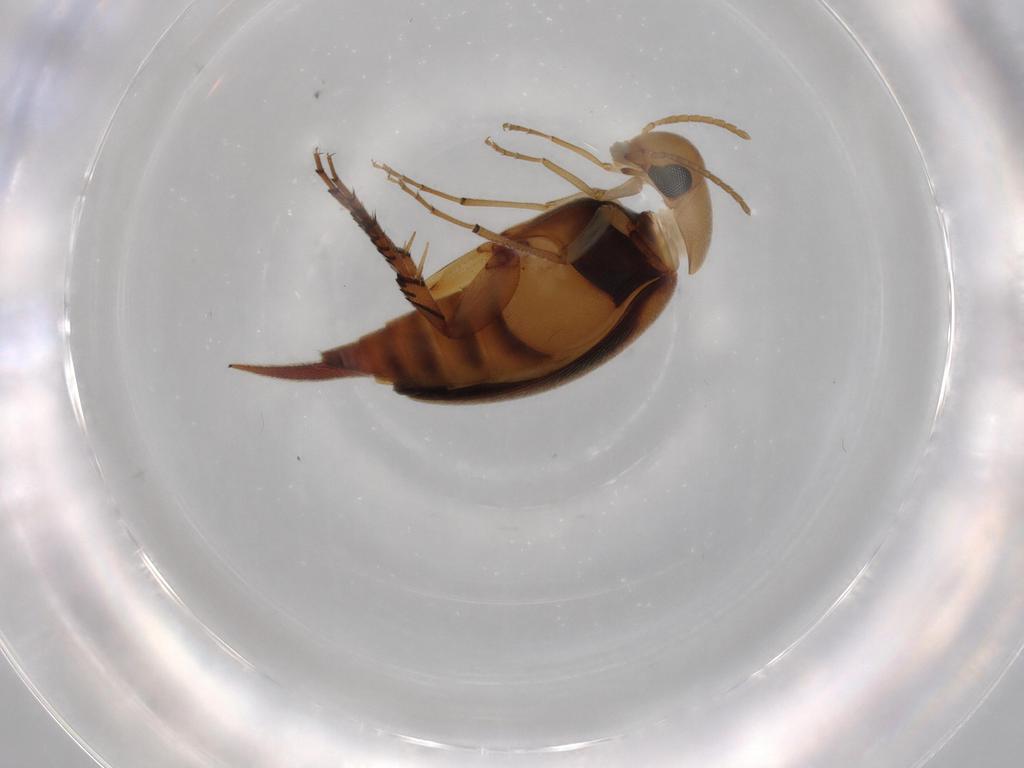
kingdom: Animalia
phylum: Arthropoda
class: Insecta
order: Coleoptera
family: Mordellidae
